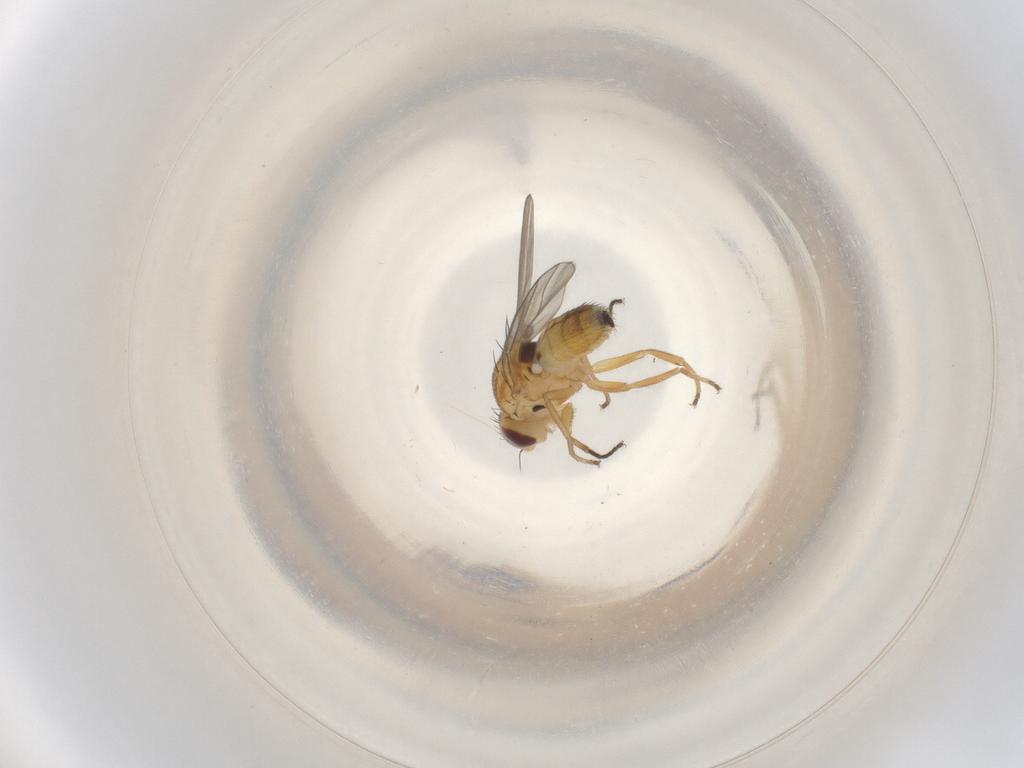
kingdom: Animalia
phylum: Arthropoda
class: Insecta
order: Diptera
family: Chloropidae
